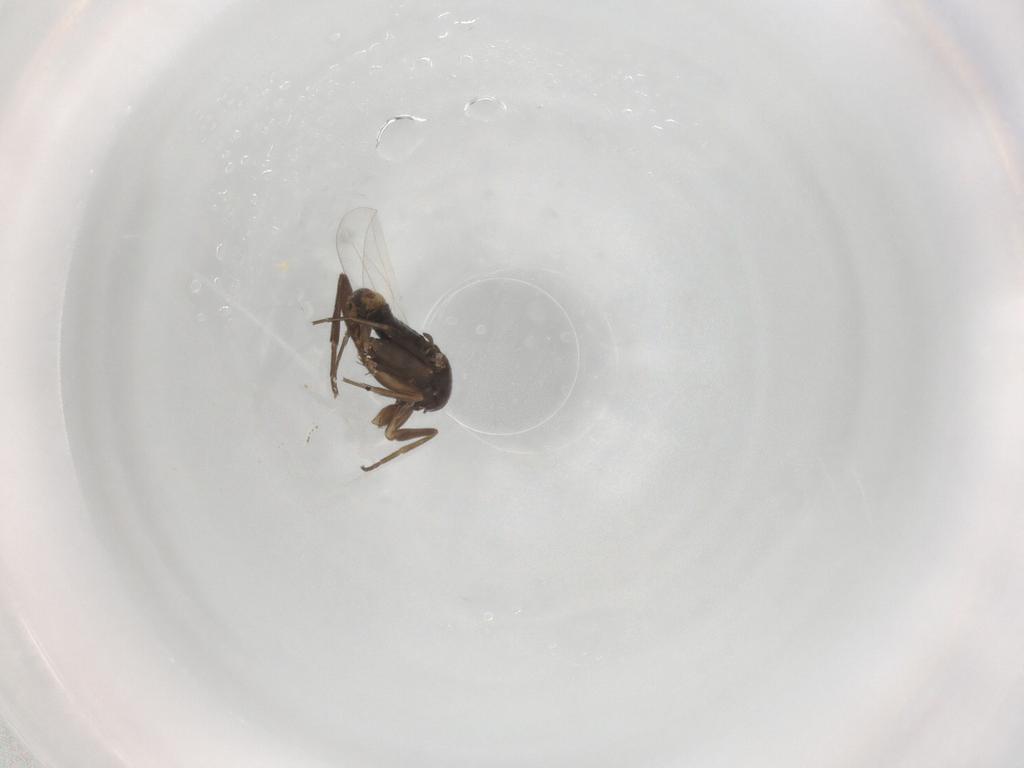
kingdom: Animalia
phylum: Arthropoda
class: Insecta
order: Diptera
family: Phoridae
